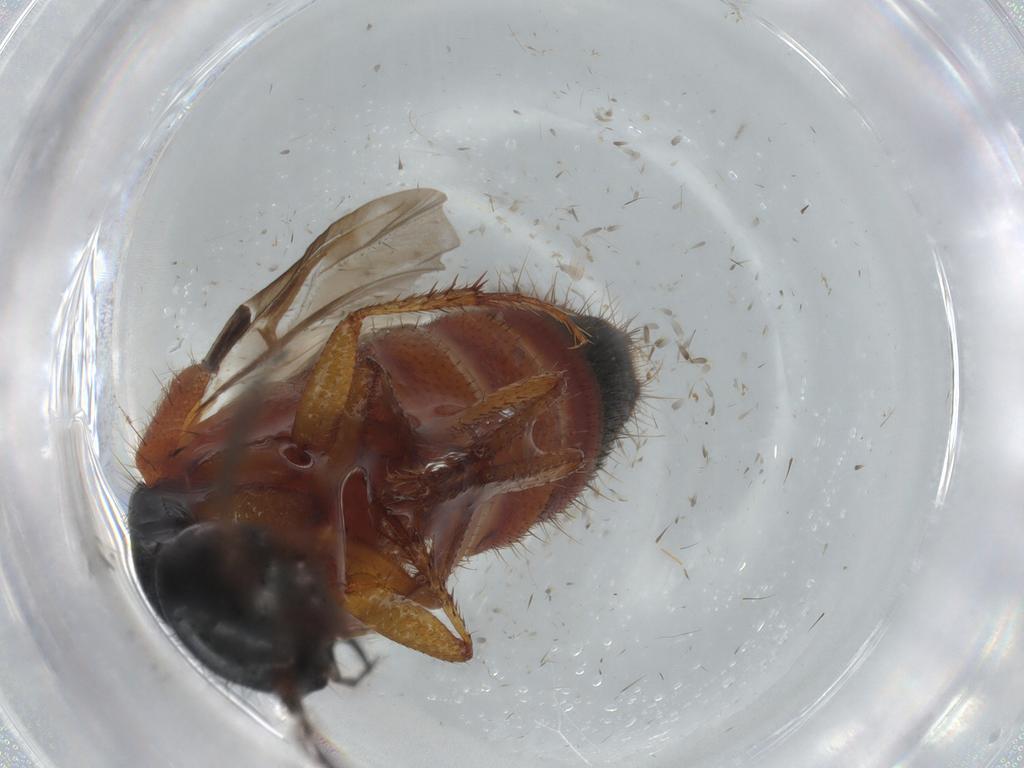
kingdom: Animalia
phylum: Arthropoda
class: Insecta
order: Coleoptera
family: Staphylinidae
